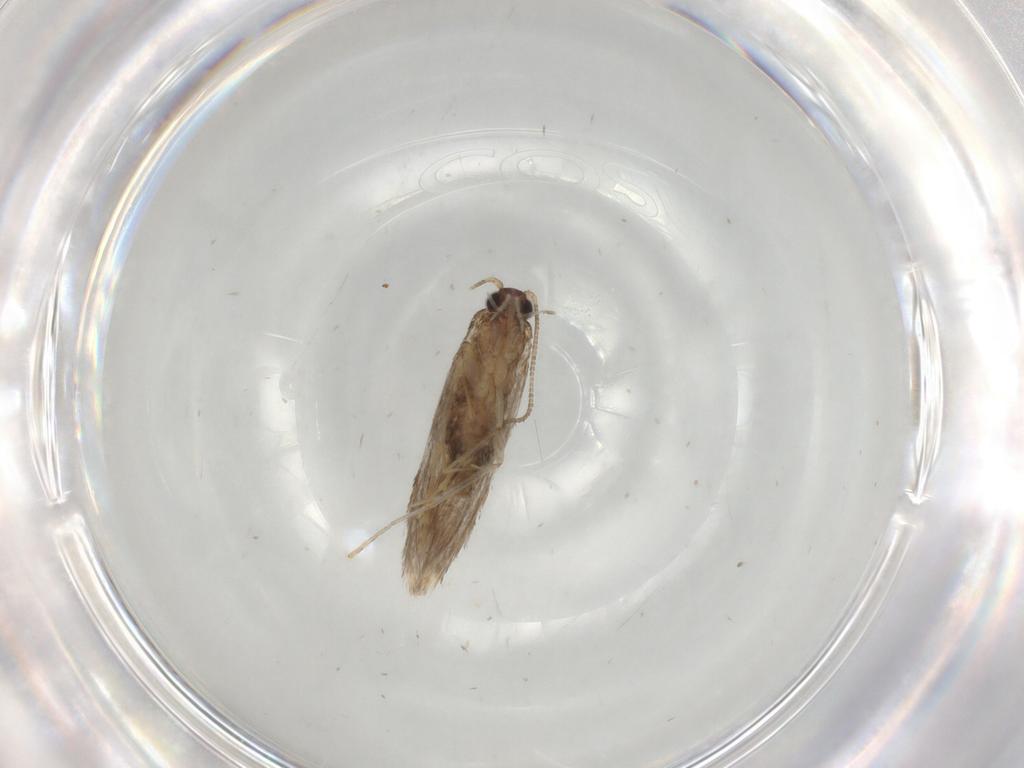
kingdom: Animalia
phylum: Arthropoda
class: Insecta
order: Lepidoptera
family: Tineidae
